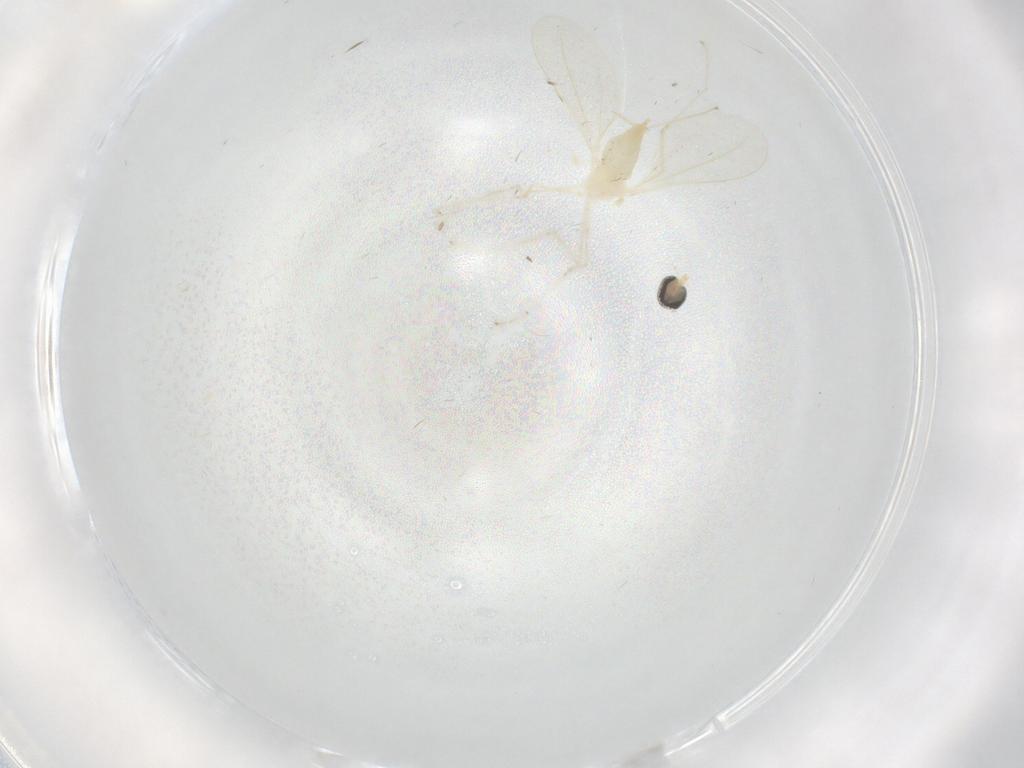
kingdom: Animalia
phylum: Arthropoda
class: Insecta
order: Diptera
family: Cecidomyiidae
